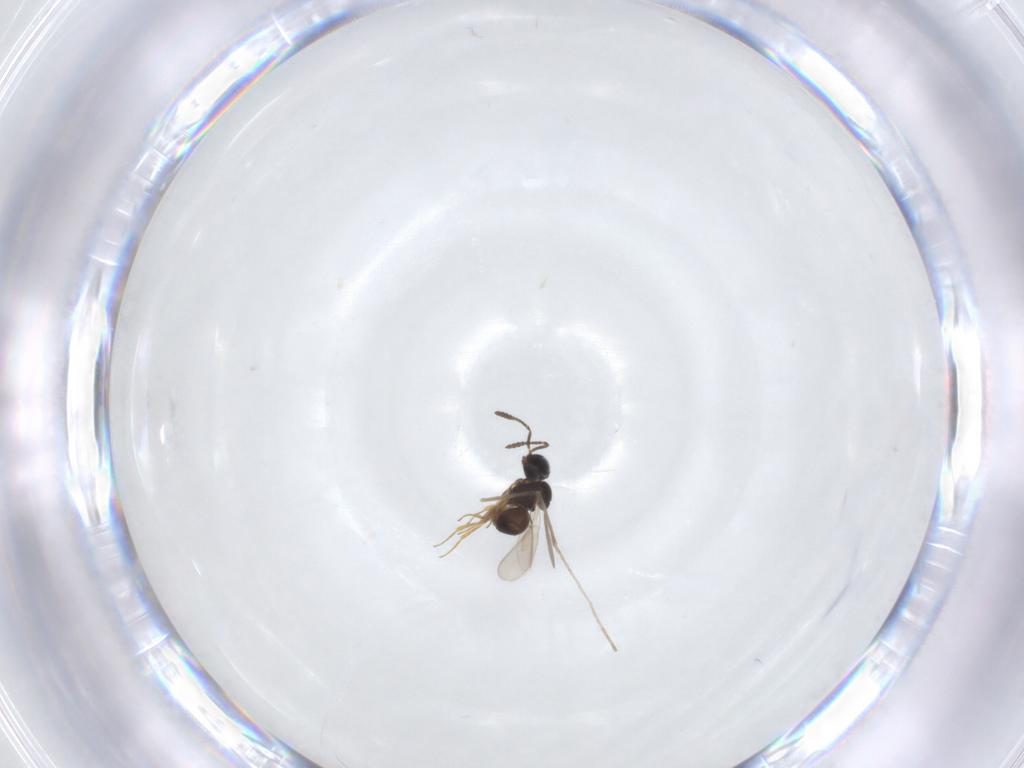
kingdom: Animalia
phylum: Arthropoda
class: Insecta
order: Hymenoptera
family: Scelionidae
